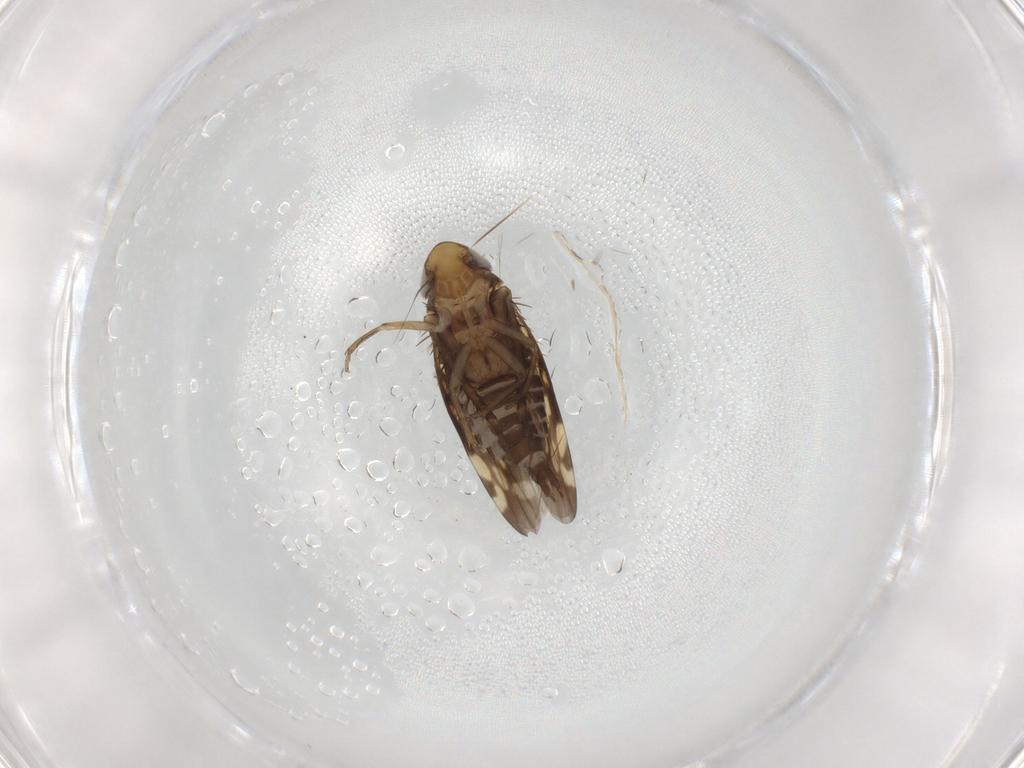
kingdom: Animalia
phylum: Arthropoda
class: Insecta
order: Hemiptera
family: Cicadellidae
